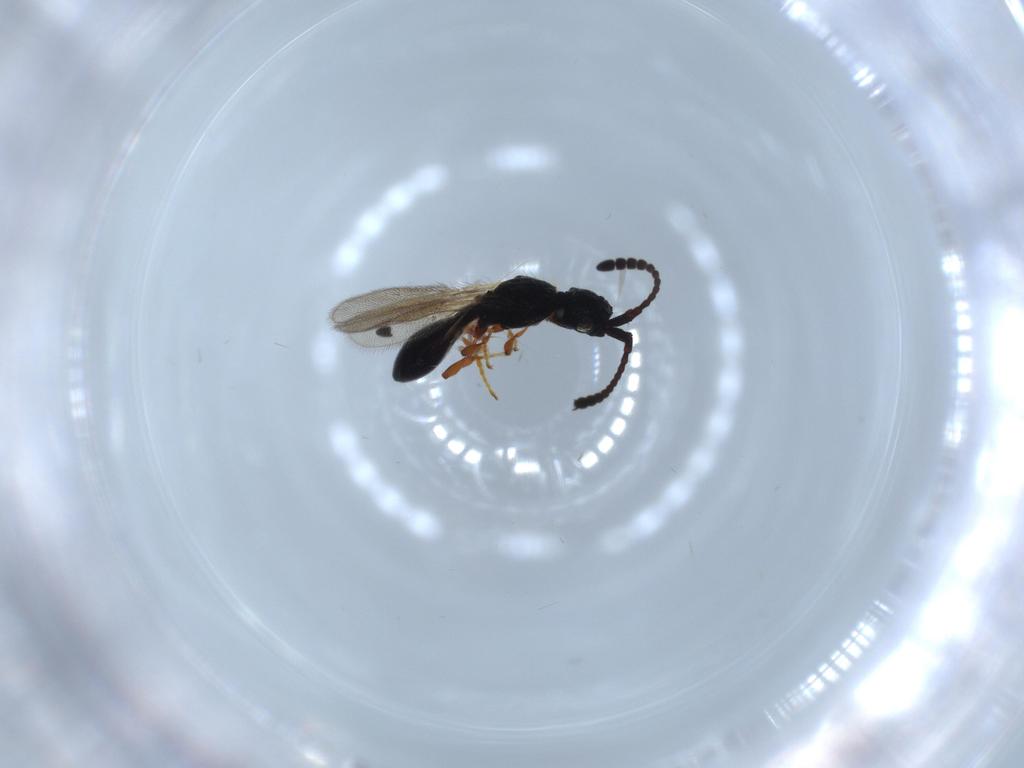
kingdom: Animalia
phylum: Arthropoda
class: Insecta
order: Hymenoptera
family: Diapriidae
